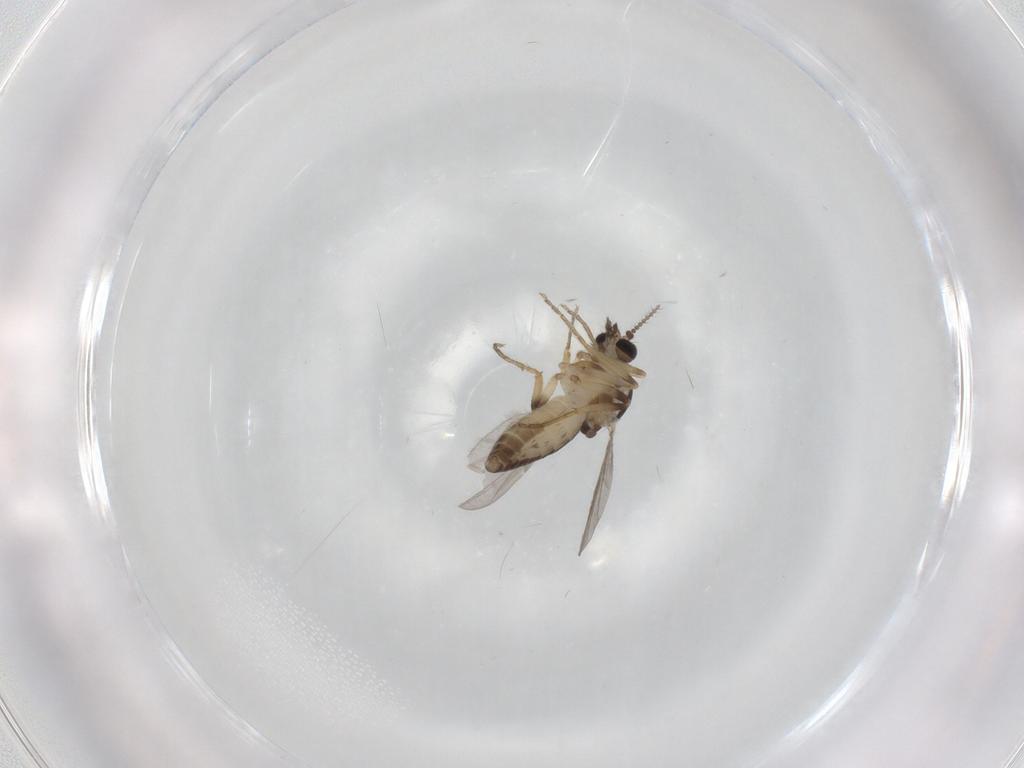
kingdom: Animalia
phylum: Arthropoda
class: Insecta
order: Diptera
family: Ceratopogonidae
